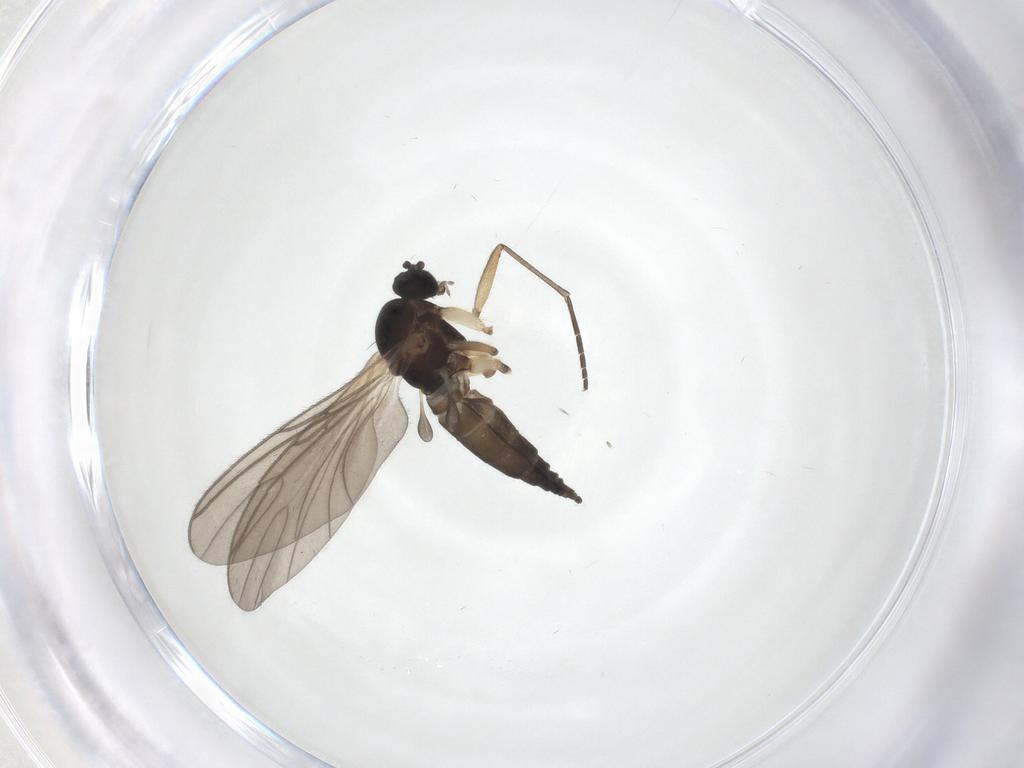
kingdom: Animalia
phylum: Arthropoda
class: Insecta
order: Diptera
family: Sciaridae
